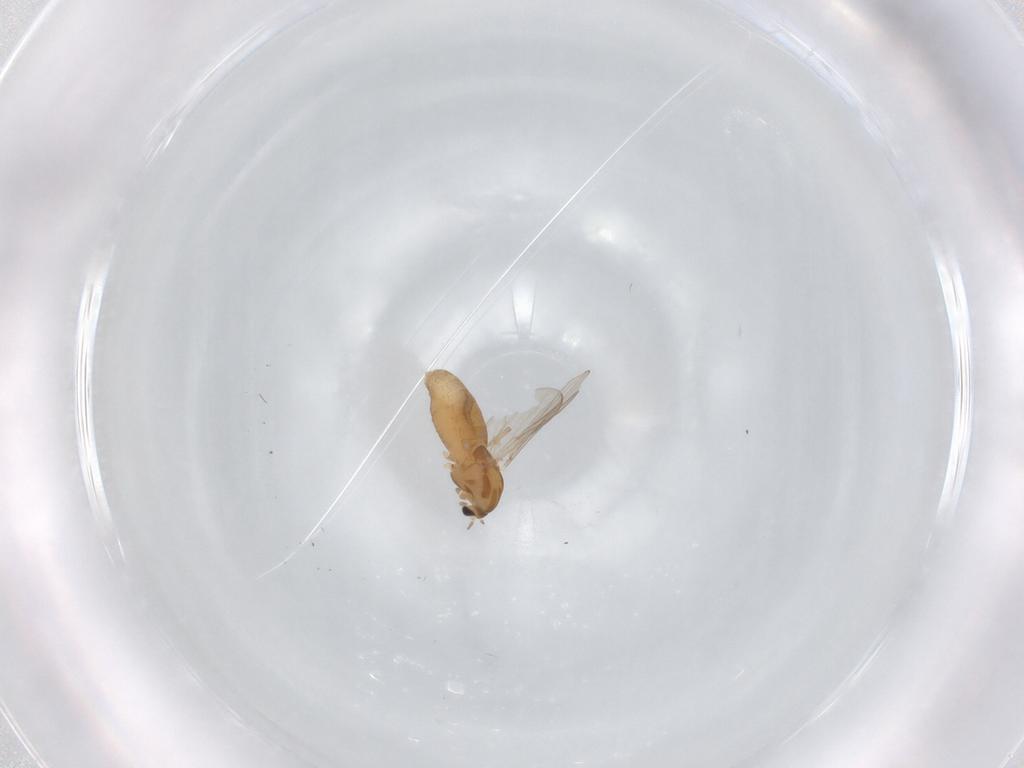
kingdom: Animalia
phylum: Arthropoda
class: Insecta
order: Diptera
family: Chironomidae
